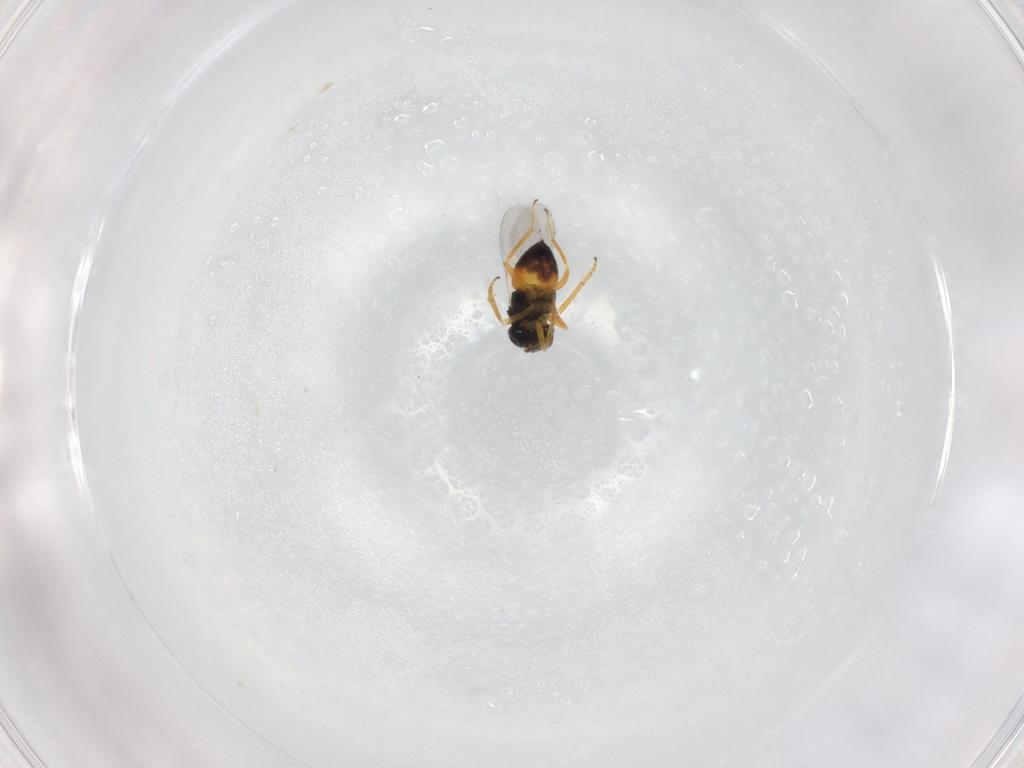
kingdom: Animalia
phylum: Arthropoda
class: Insecta
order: Hymenoptera
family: Encyrtidae
